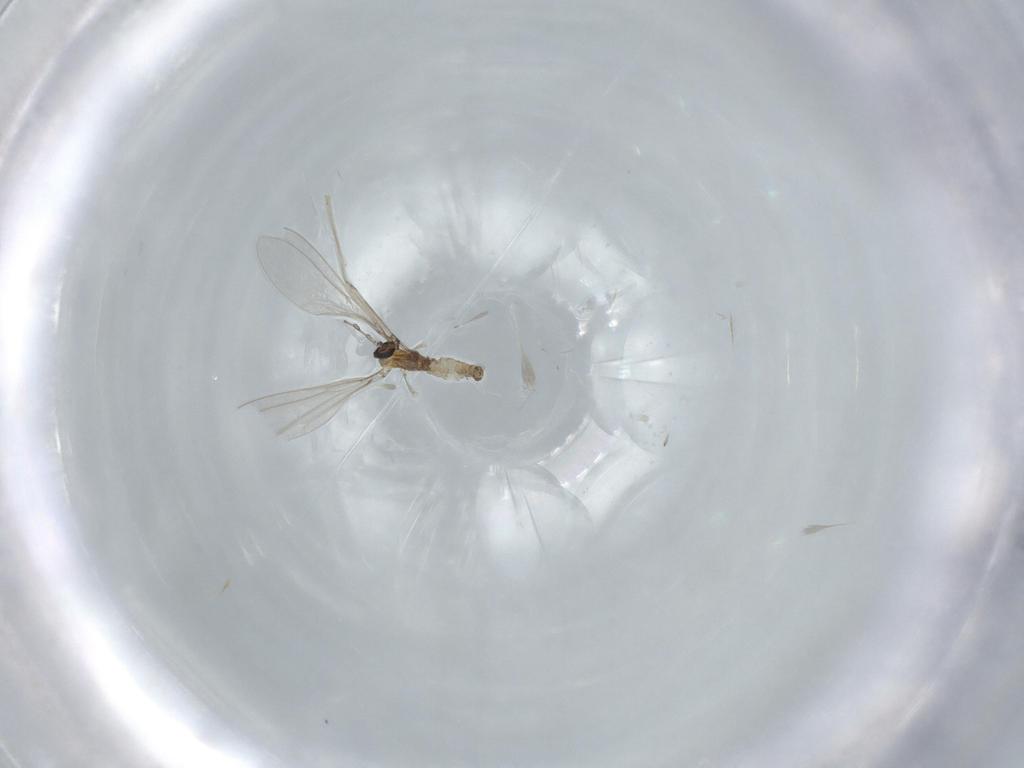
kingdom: Animalia
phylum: Arthropoda
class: Insecta
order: Diptera
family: Cecidomyiidae
